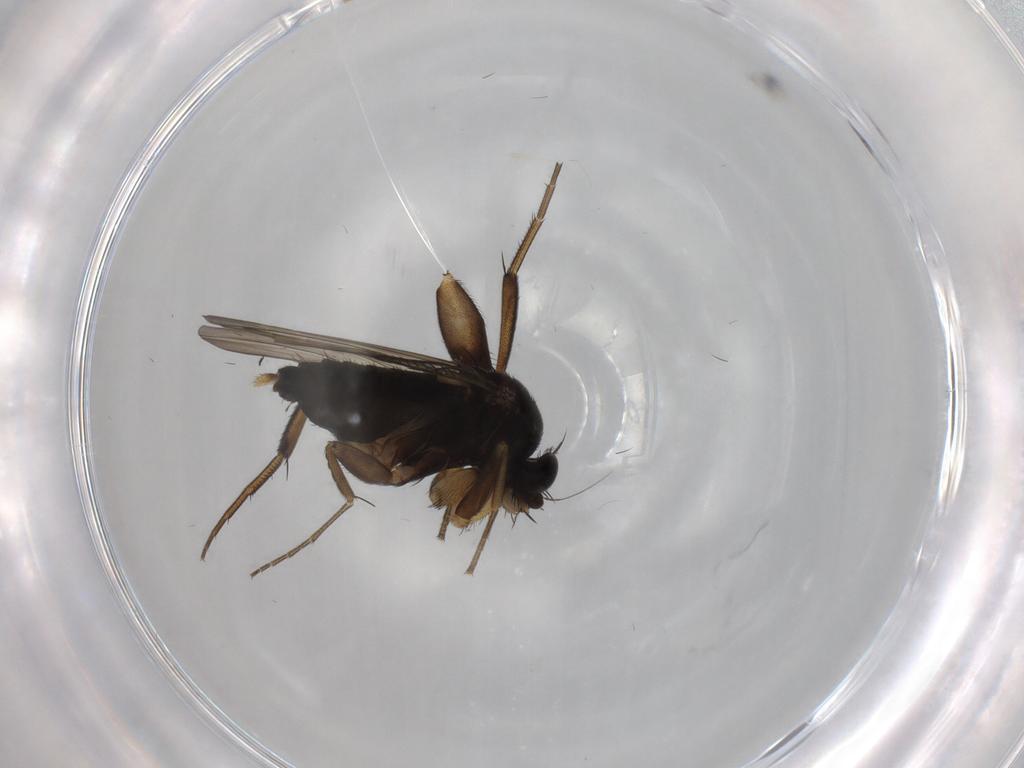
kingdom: Animalia
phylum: Arthropoda
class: Insecta
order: Diptera
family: Phoridae
